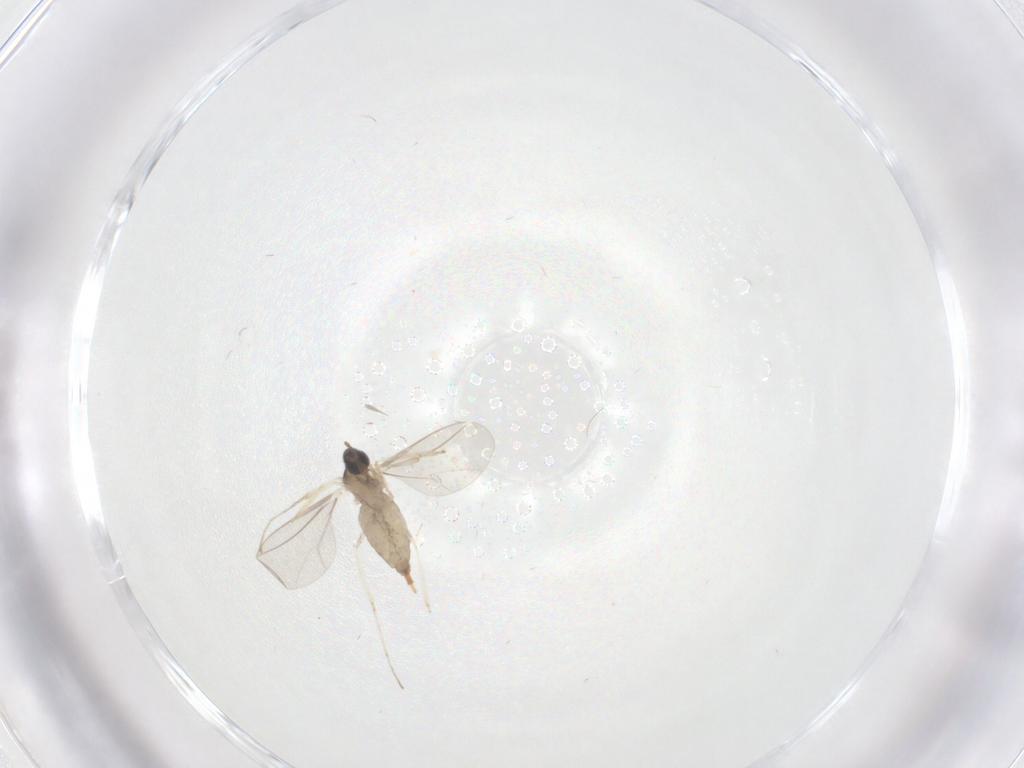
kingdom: Animalia
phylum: Arthropoda
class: Insecta
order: Diptera
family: Cecidomyiidae
